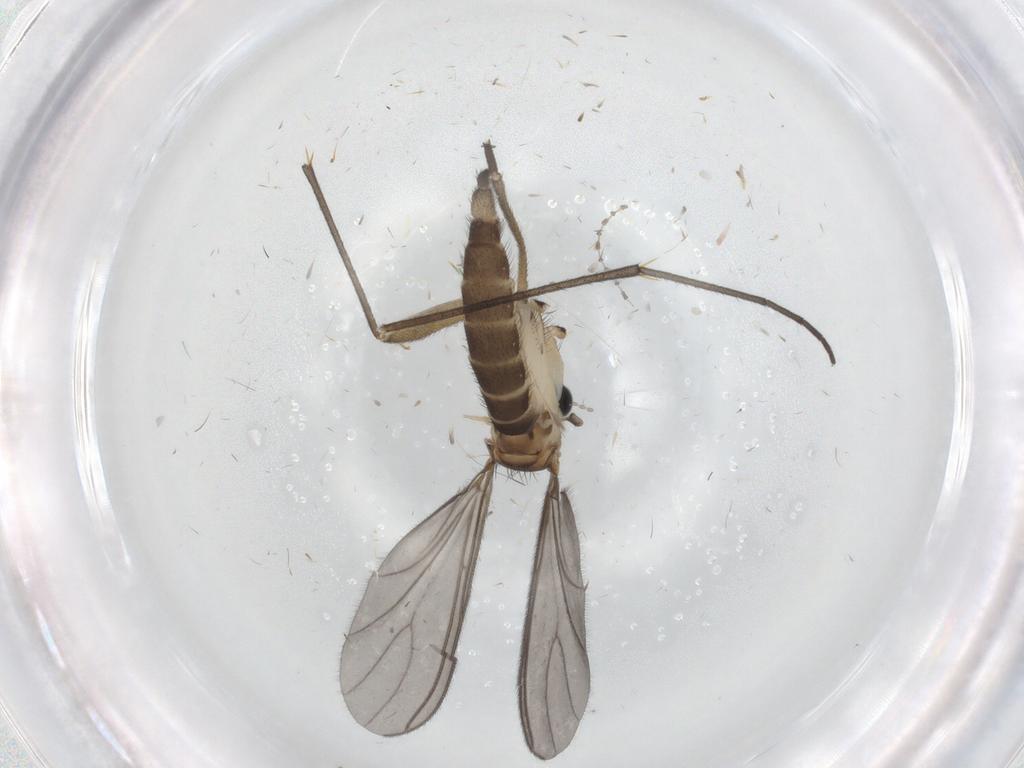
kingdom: Animalia
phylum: Arthropoda
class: Insecta
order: Diptera
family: Sciaridae
